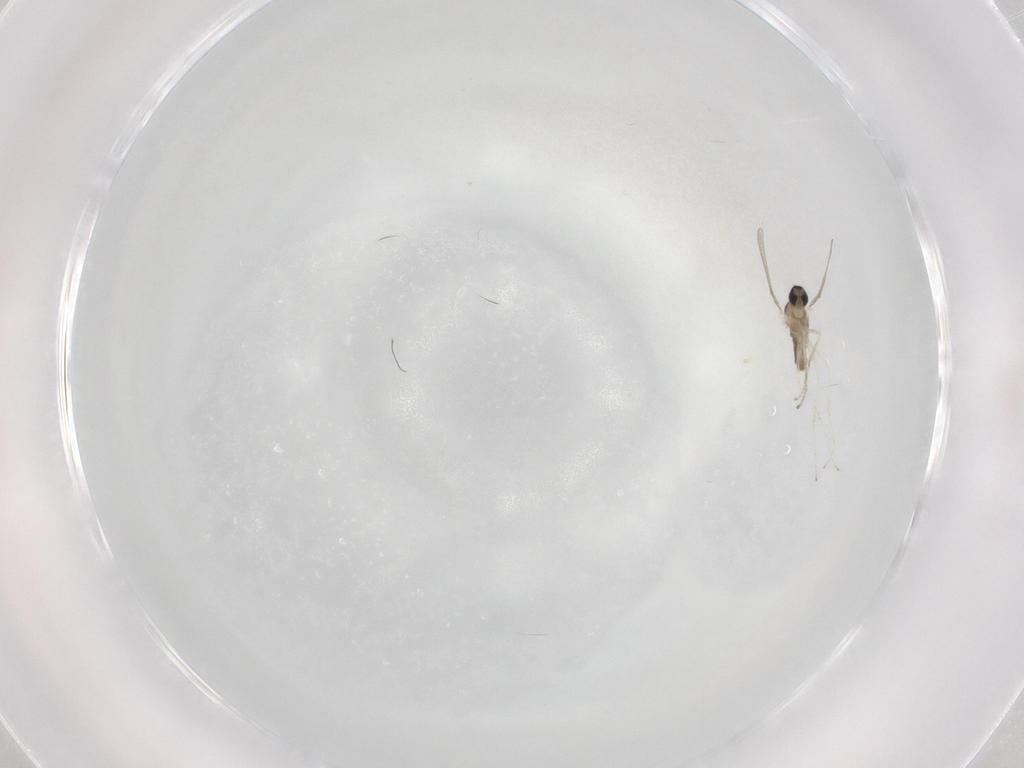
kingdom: Animalia
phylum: Arthropoda
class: Insecta
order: Diptera
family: Cecidomyiidae
